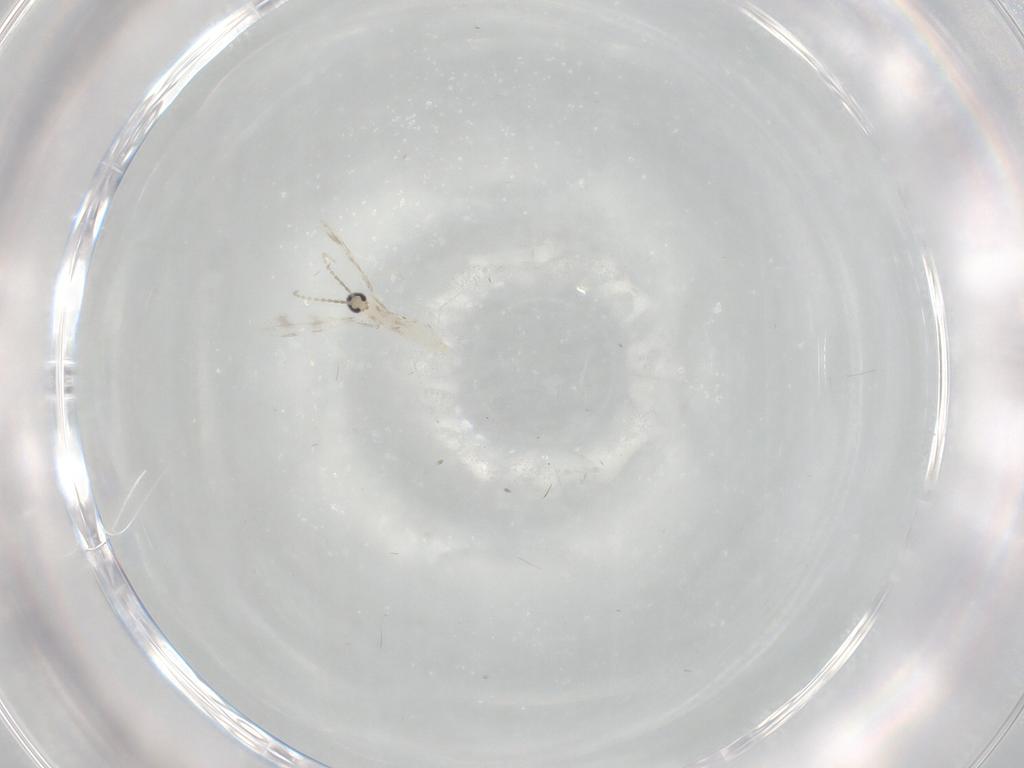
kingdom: Animalia
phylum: Arthropoda
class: Insecta
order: Diptera
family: Cecidomyiidae
